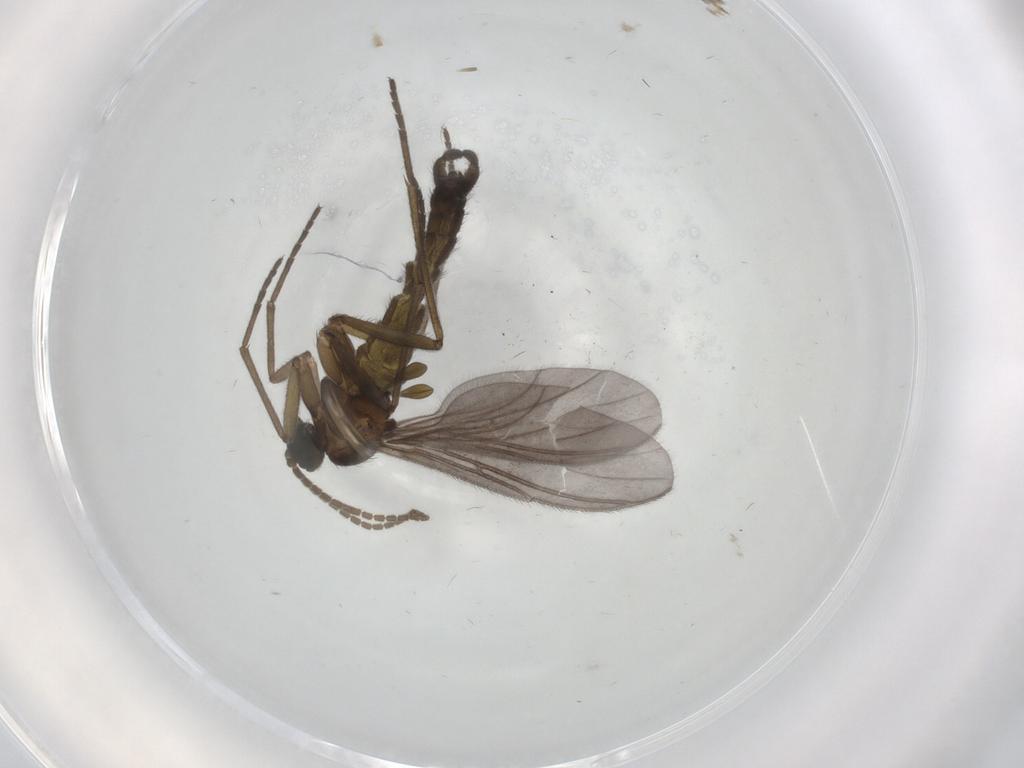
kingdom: Animalia
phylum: Arthropoda
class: Insecta
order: Diptera
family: Sciaridae
